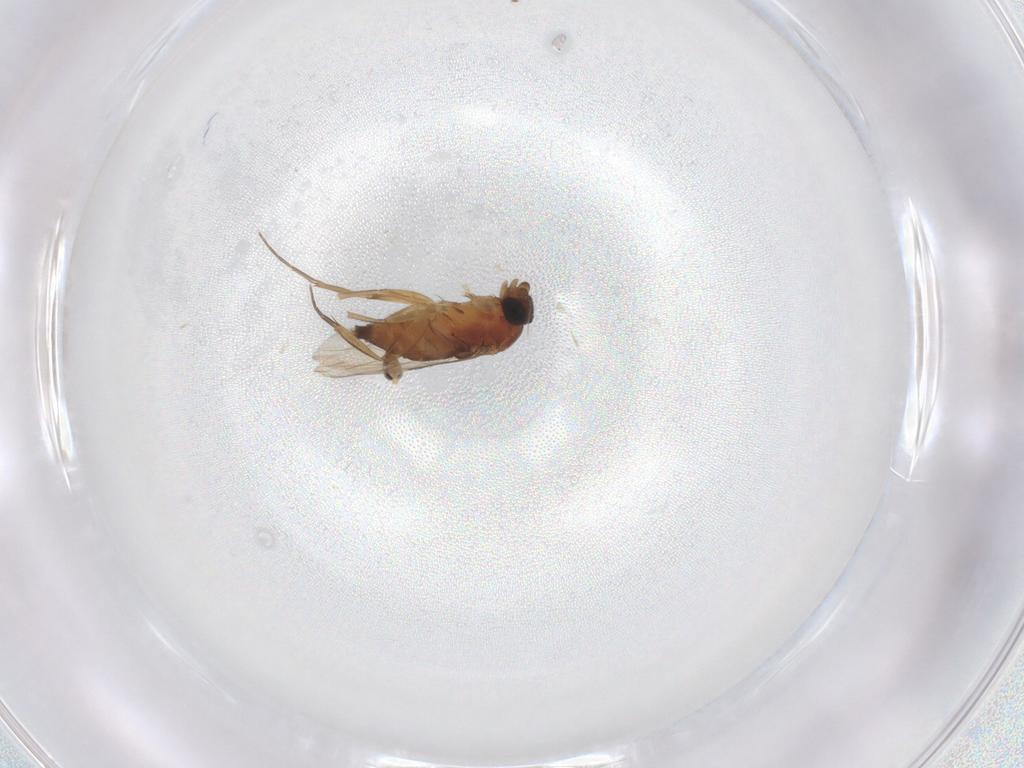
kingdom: Animalia
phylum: Arthropoda
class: Insecta
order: Diptera
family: Phoridae
